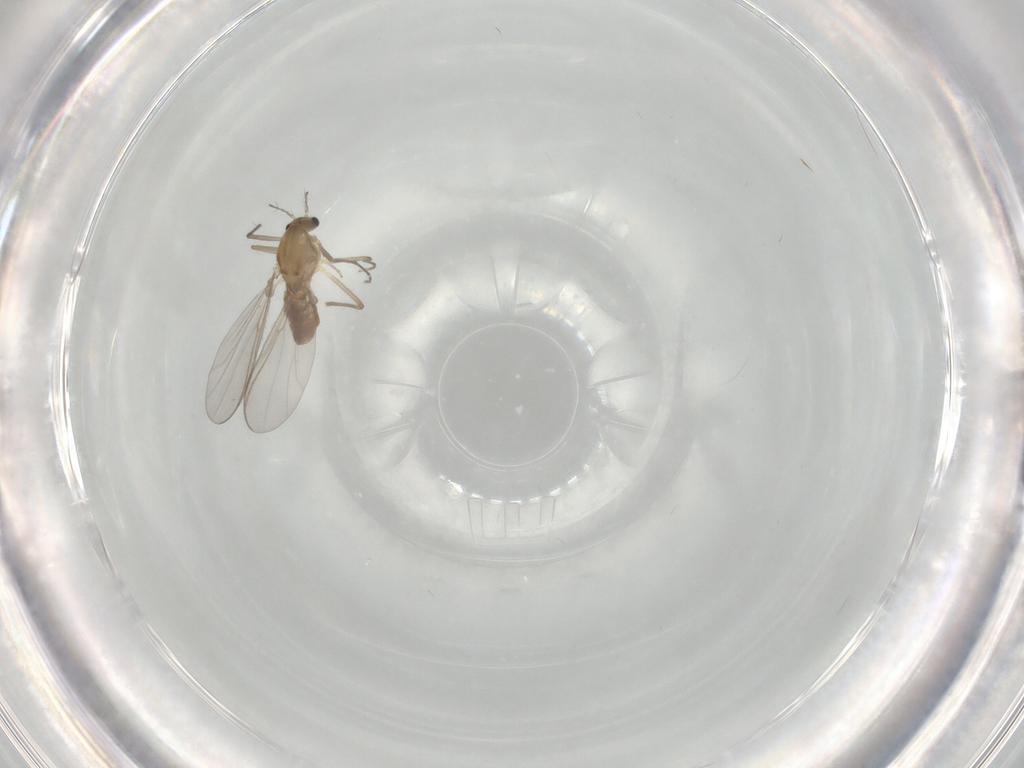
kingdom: Animalia
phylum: Arthropoda
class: Insecta
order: Diptera
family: Chironomidae
